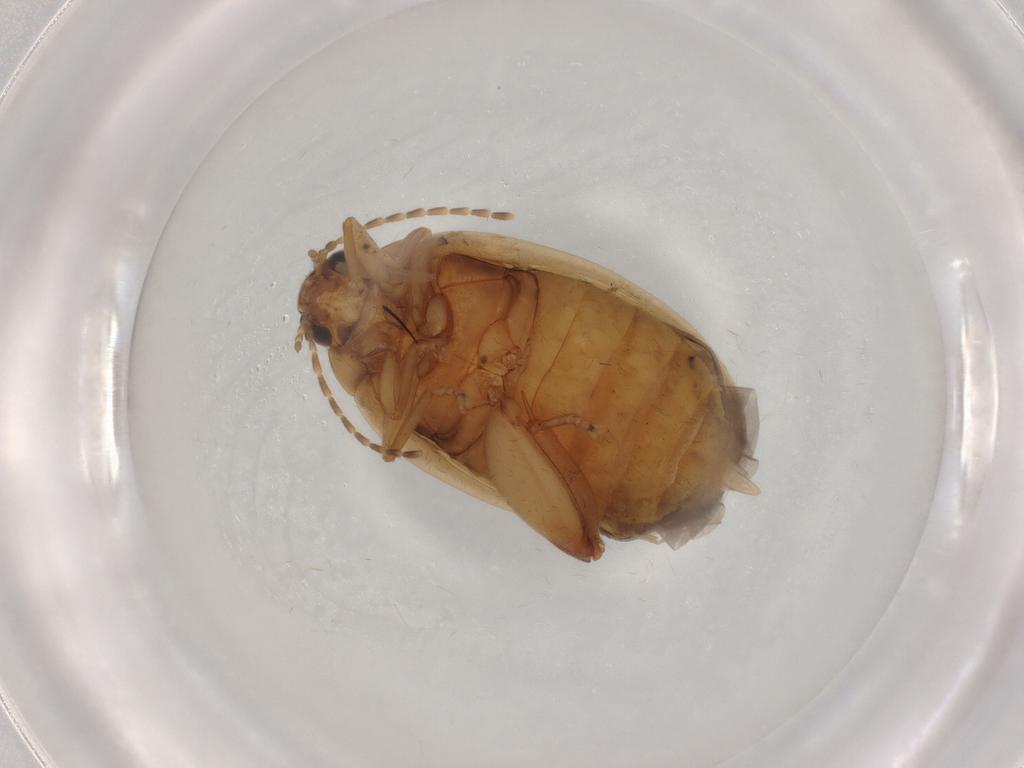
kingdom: Animalia
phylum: Arthropoda
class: Insecta
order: Coleoptera
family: Scirtidae
